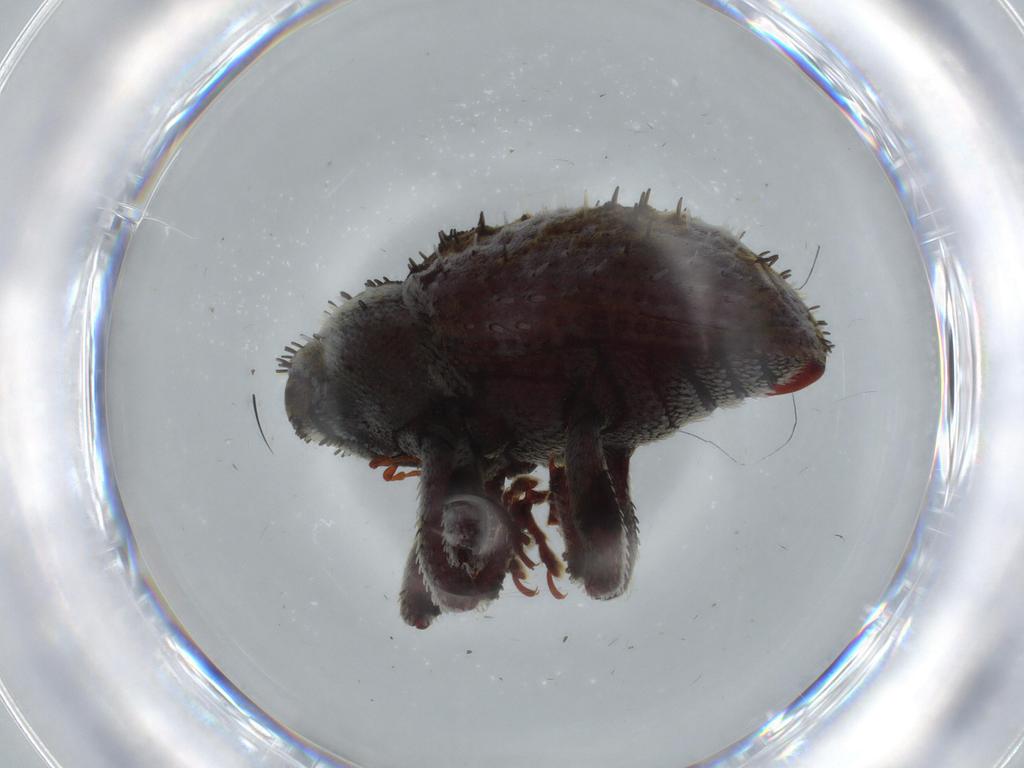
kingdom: Animalia
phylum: Arthropoda
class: Insecta
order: Coleoptera
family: Curculionidae
